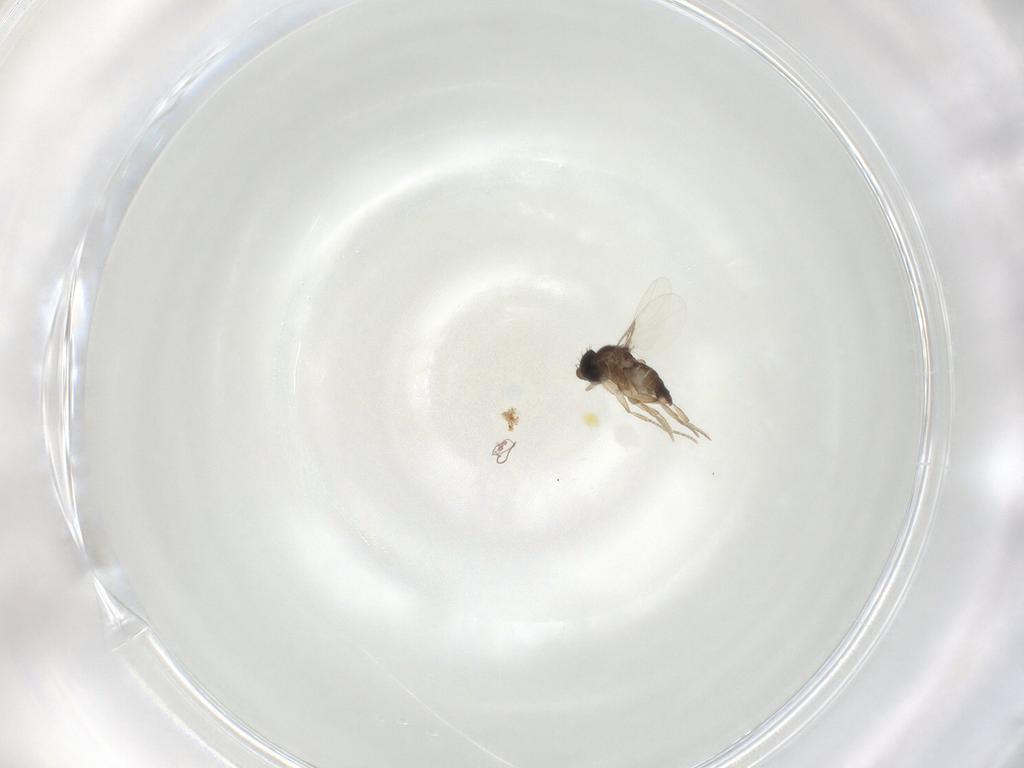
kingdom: Animalia
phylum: Arthropoda
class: Insecta
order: Diptera
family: Phoridae
